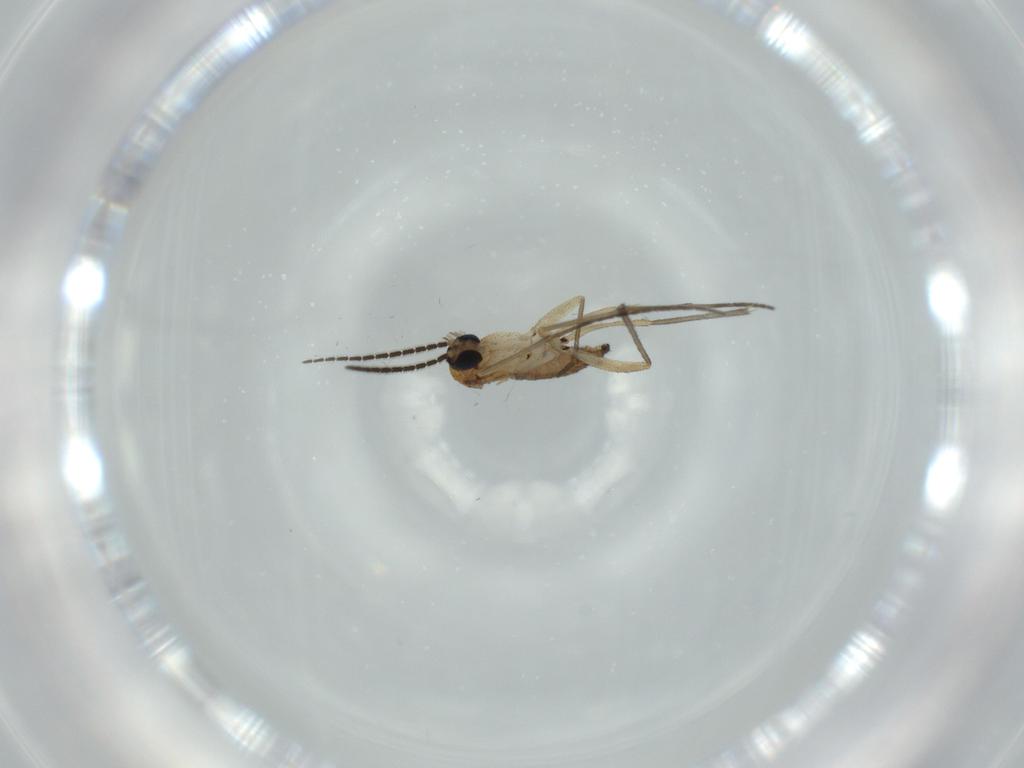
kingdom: Animalia
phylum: Arthropoda
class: Insecta
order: Diptera
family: Sciaridae
